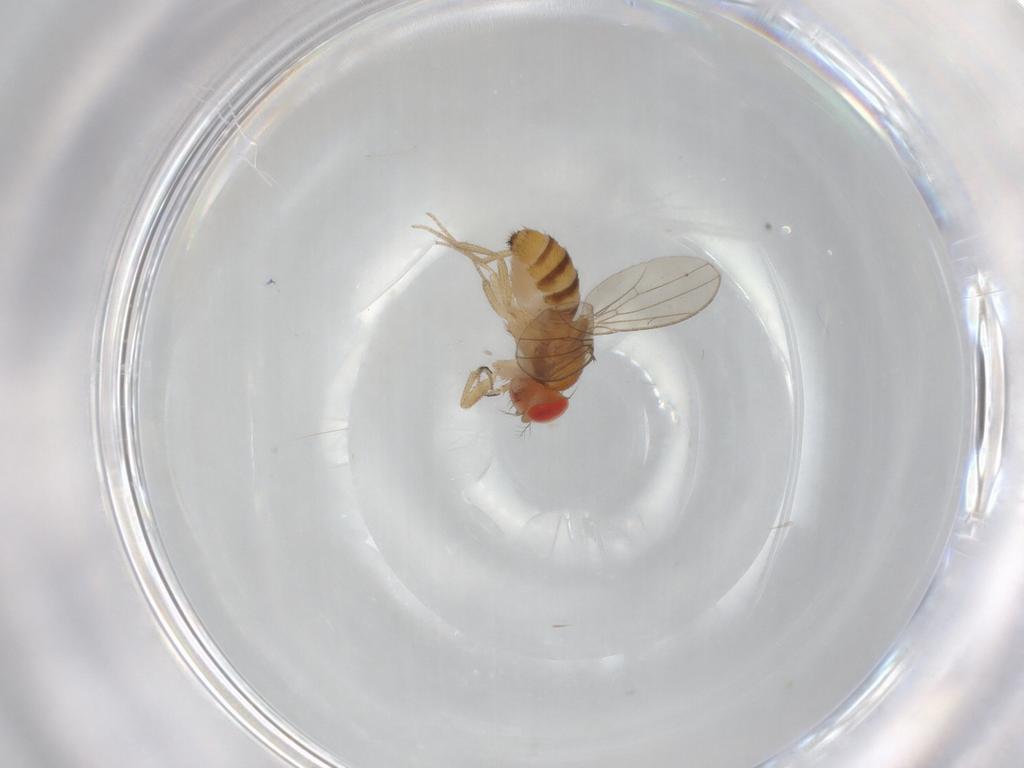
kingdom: Animalia
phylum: Arthropoda
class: Insecta
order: Diptera
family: Drosophilidae
